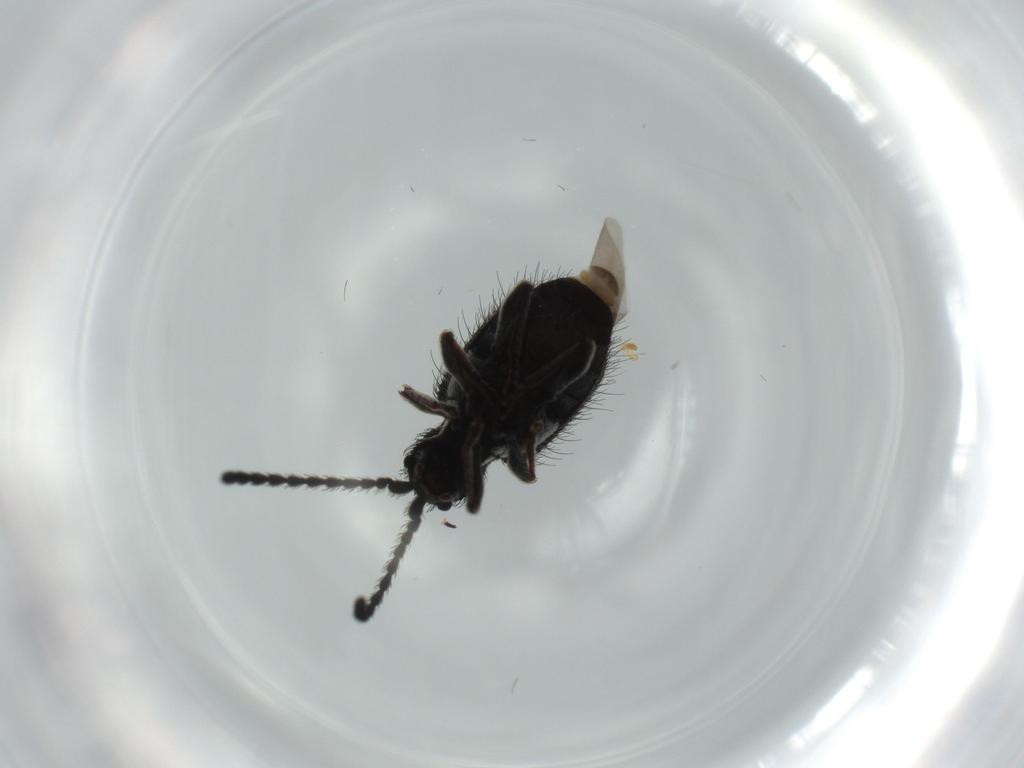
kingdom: Animalia
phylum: Arthropoda
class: Insecta
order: Coleoptera
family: Ptinidae
